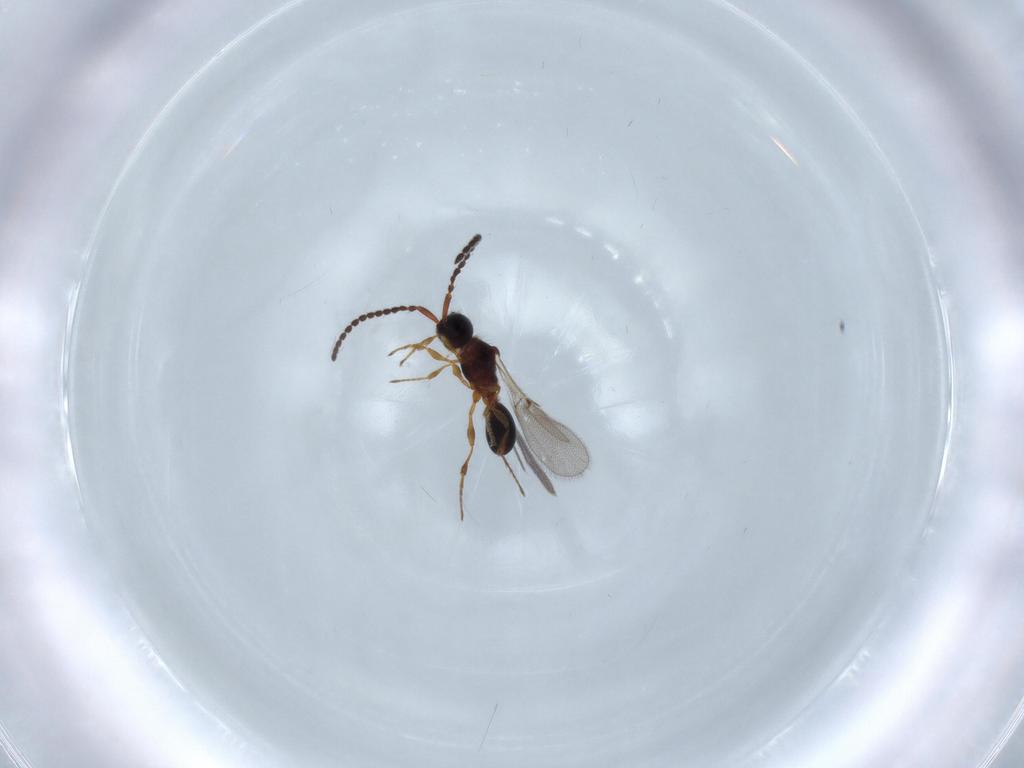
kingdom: Animalia
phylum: Arthropoda
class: Insecta
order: Hymenoptera
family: Diapriidae
